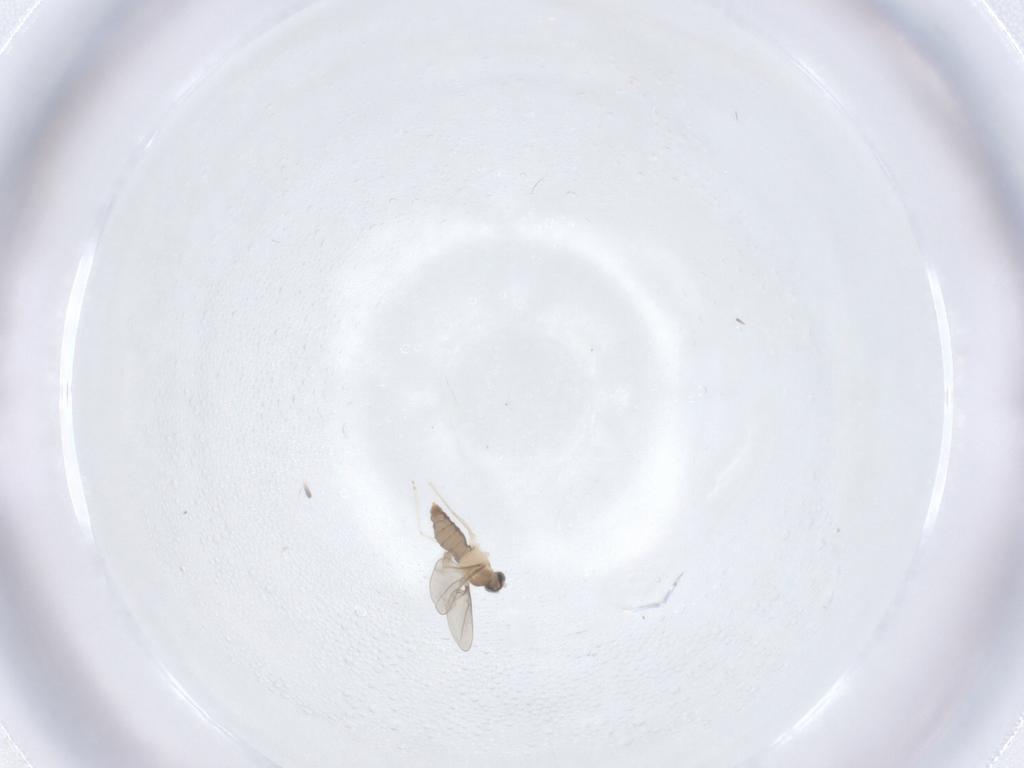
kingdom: Animalia
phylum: Arthropoda
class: Insecta
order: Diptera
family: Cecidomyiidae
